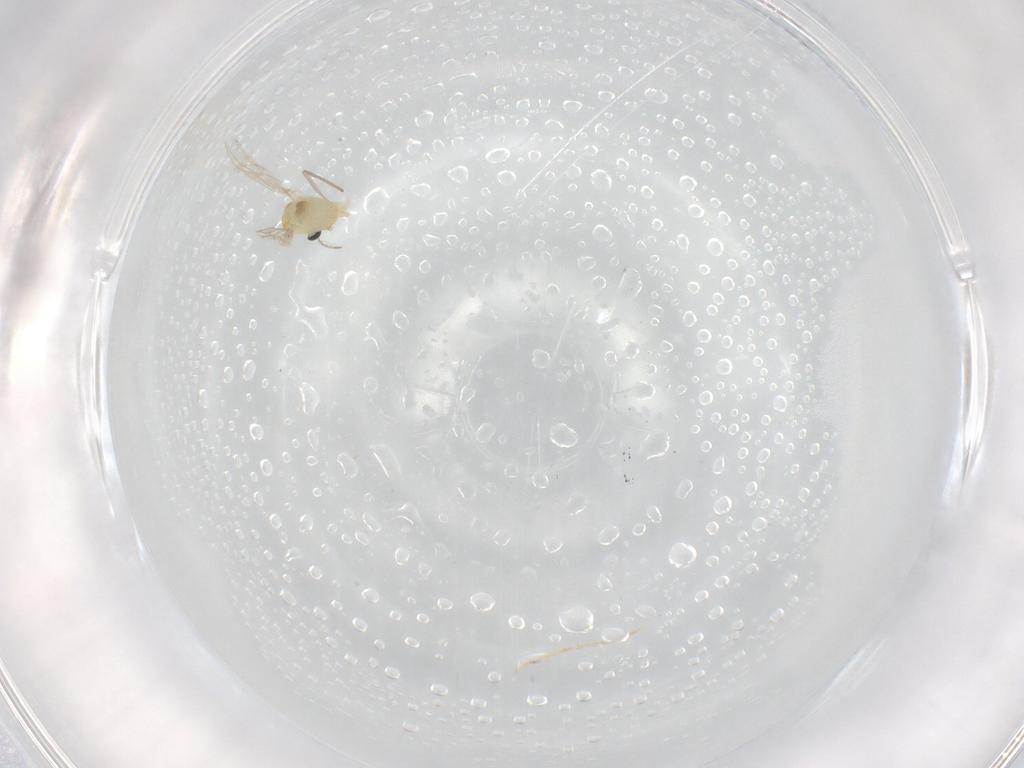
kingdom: Animalia
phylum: Arthropoda
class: Insecta
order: Diptera
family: Chironomidae
